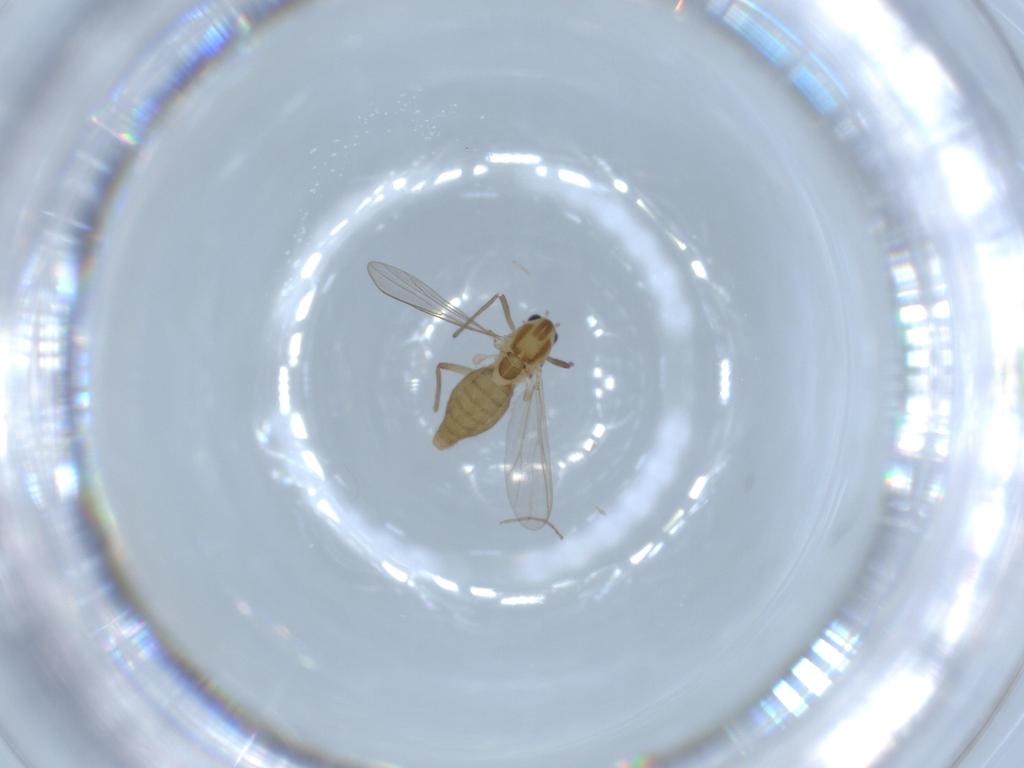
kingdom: Animalia
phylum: Arthropoda
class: Insecta
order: Diptera
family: Chironomidae
